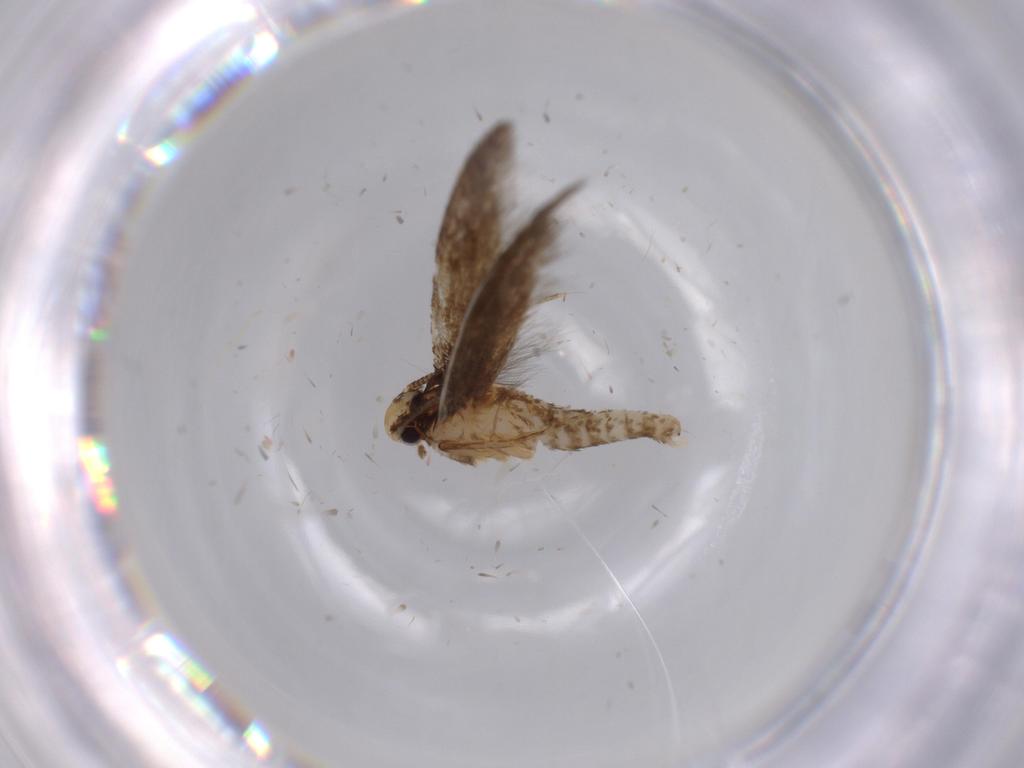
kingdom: Animalia
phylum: Arthropoda
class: Insecta
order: Lepidoptera
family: Tineidae
